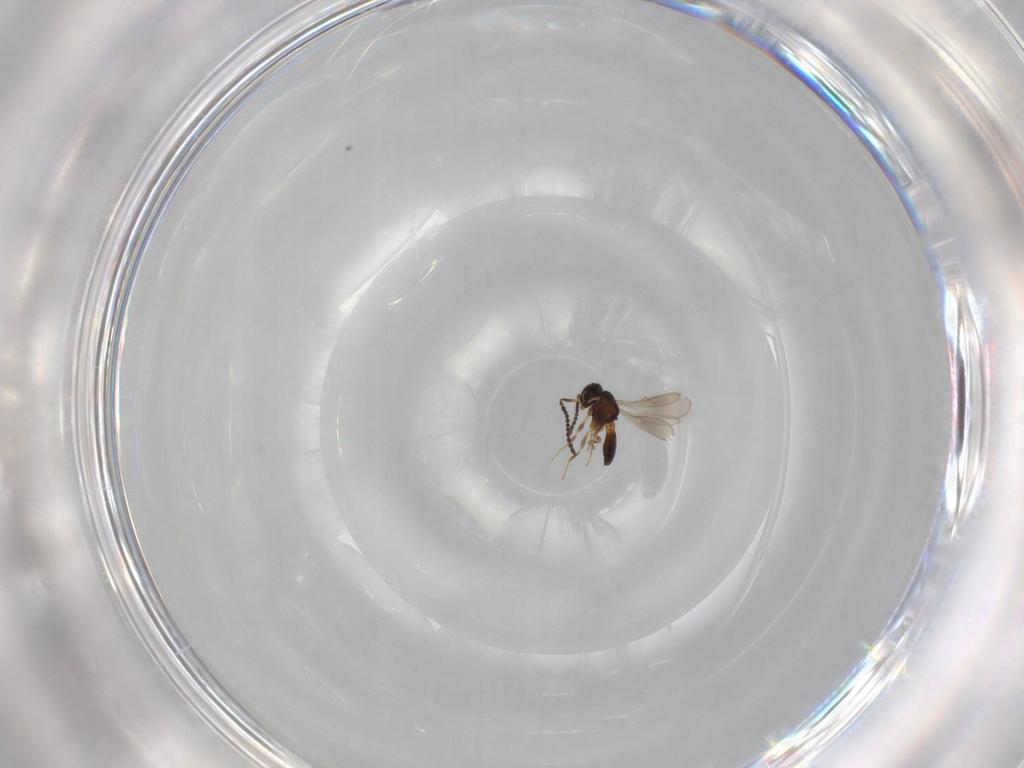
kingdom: Animalia
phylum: Arthropoda
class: Insecta
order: Hymenoptera
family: Scelionidae
